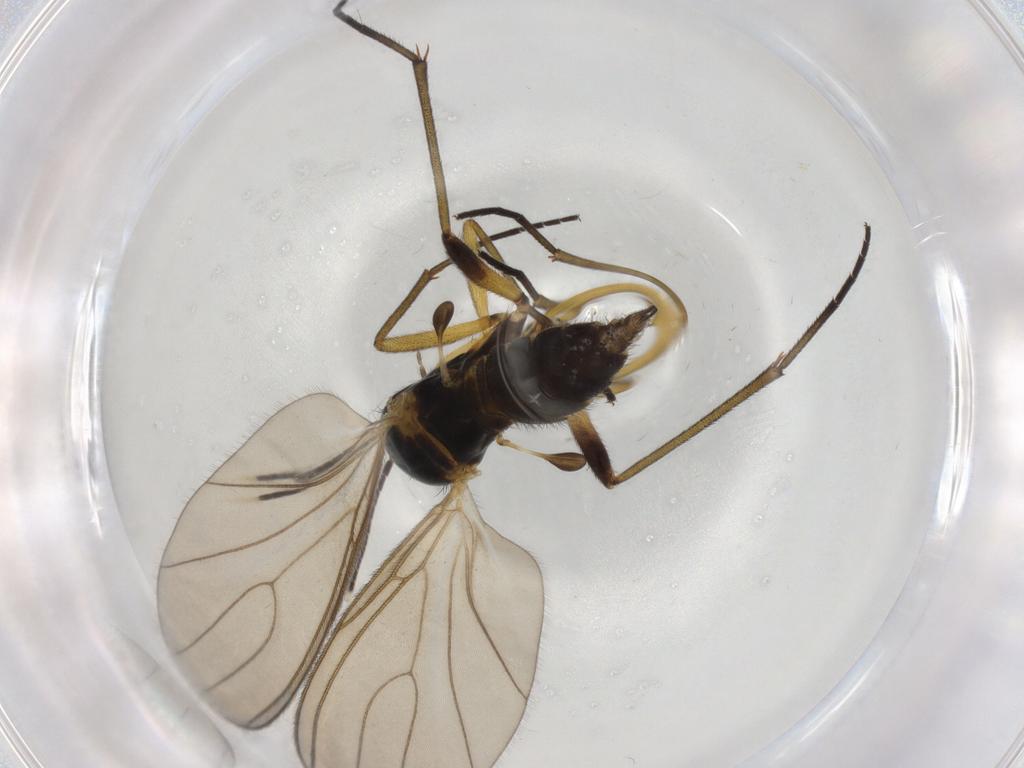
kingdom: Animalia
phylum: Arthropoda
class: Insecta
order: Diptera
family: Sciaridae
